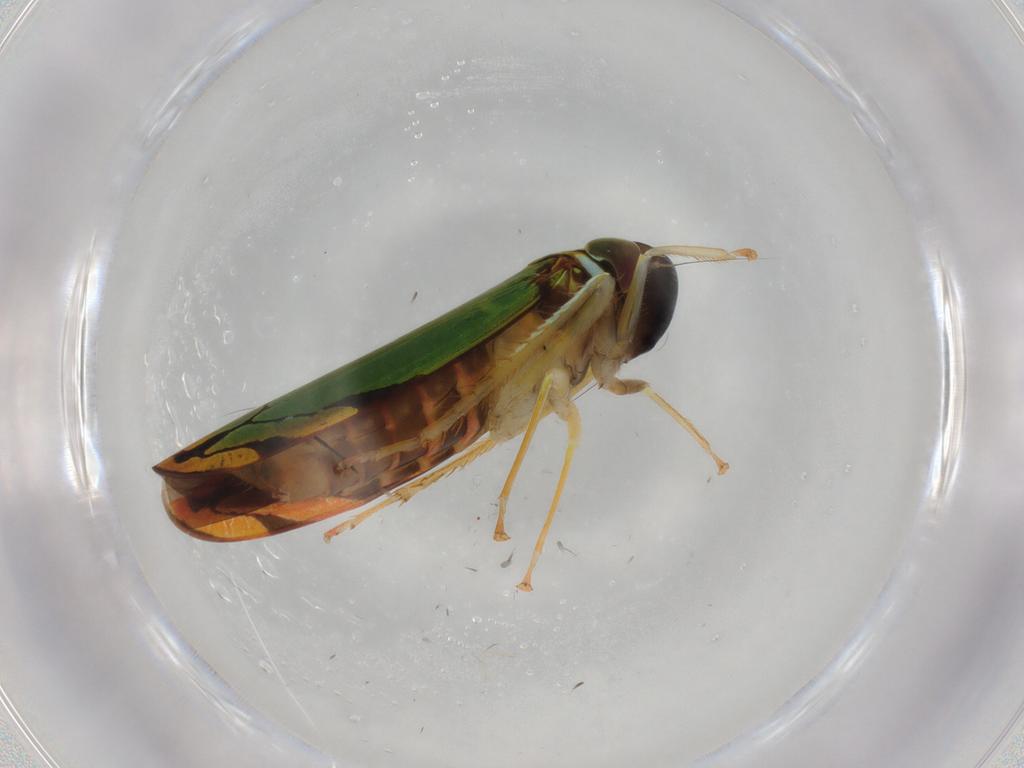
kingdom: Animalia
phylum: Arthropoda
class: Insecta
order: Hemiptera
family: Cicadellidae
